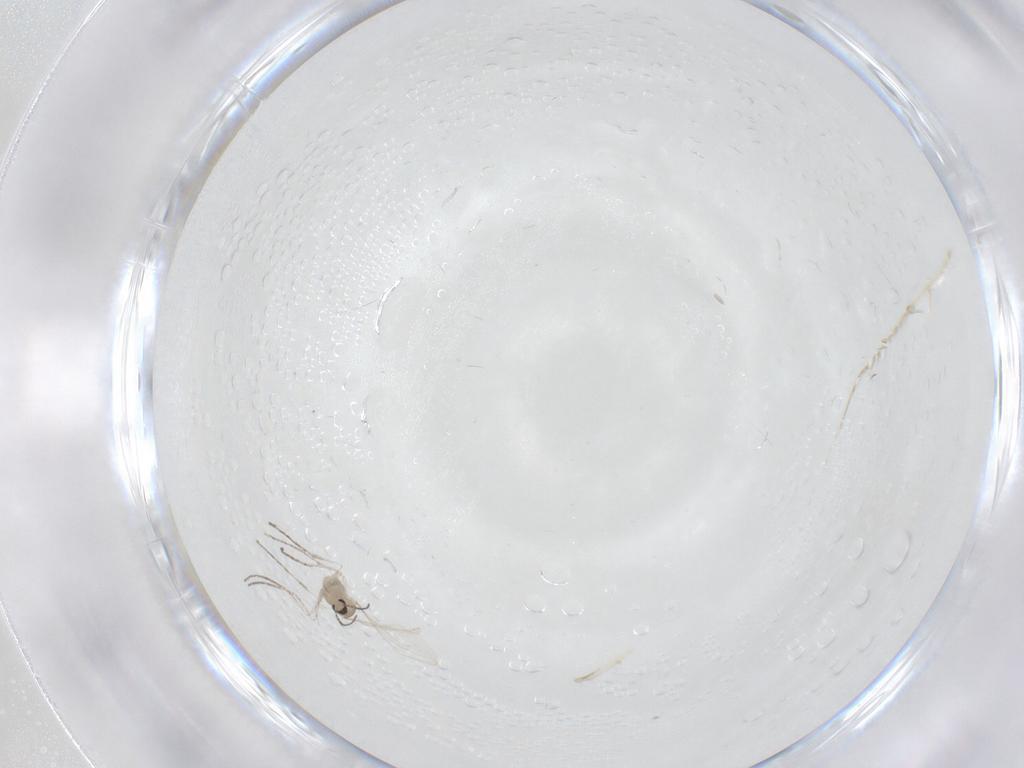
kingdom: Animalia
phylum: Arthropoda
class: Insecta
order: Diptera
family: Cecidomyiidae
